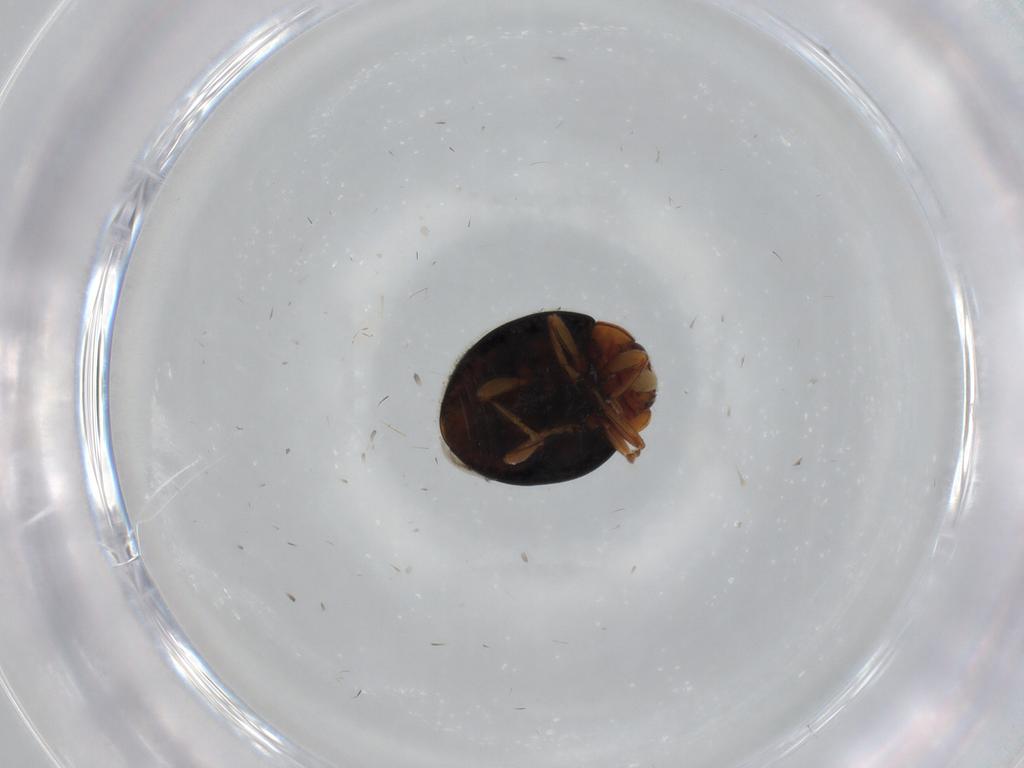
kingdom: Animalia
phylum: Arthropoda
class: Insecta
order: Coleoptera
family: Coccinellidae
